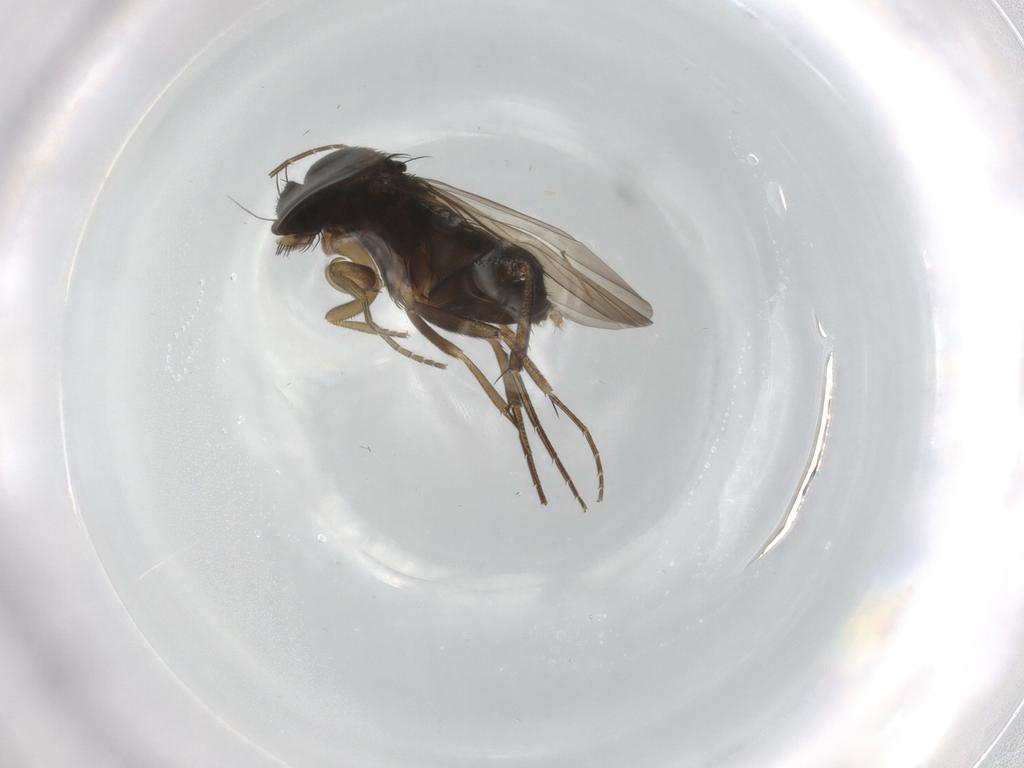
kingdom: Animalia
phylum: Arthropoda
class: Insecta
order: Diptera
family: Phoridae
